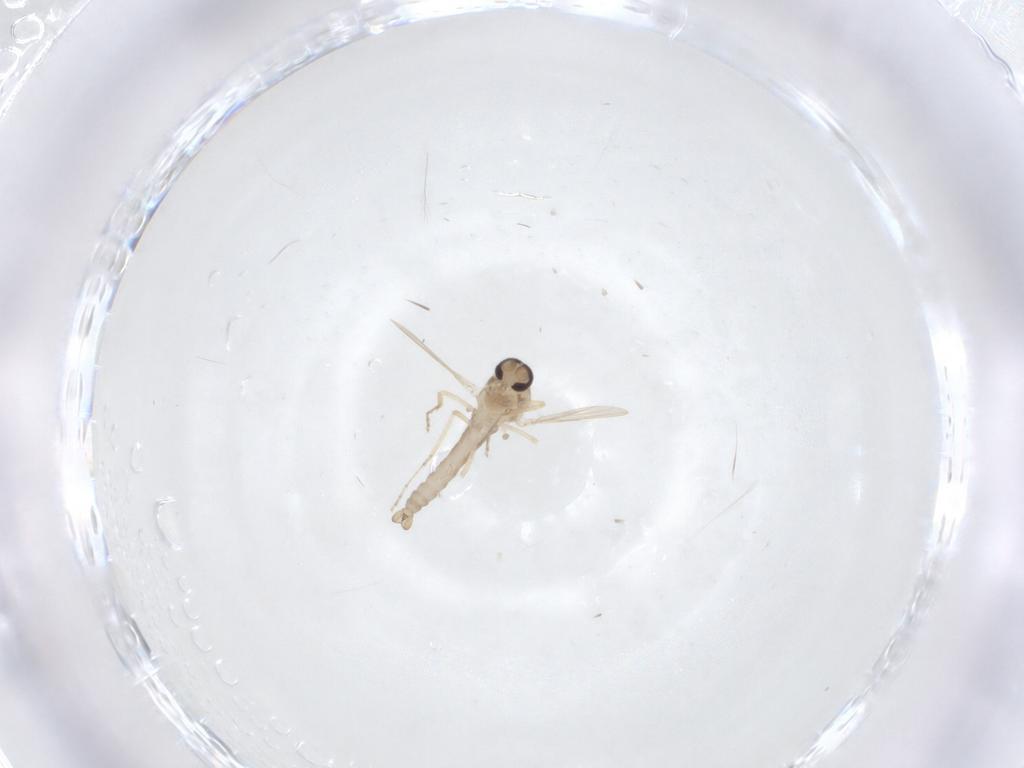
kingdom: Animalia
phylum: Arthropoda
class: Insecta
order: Diptera
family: Ceratopogonidae
